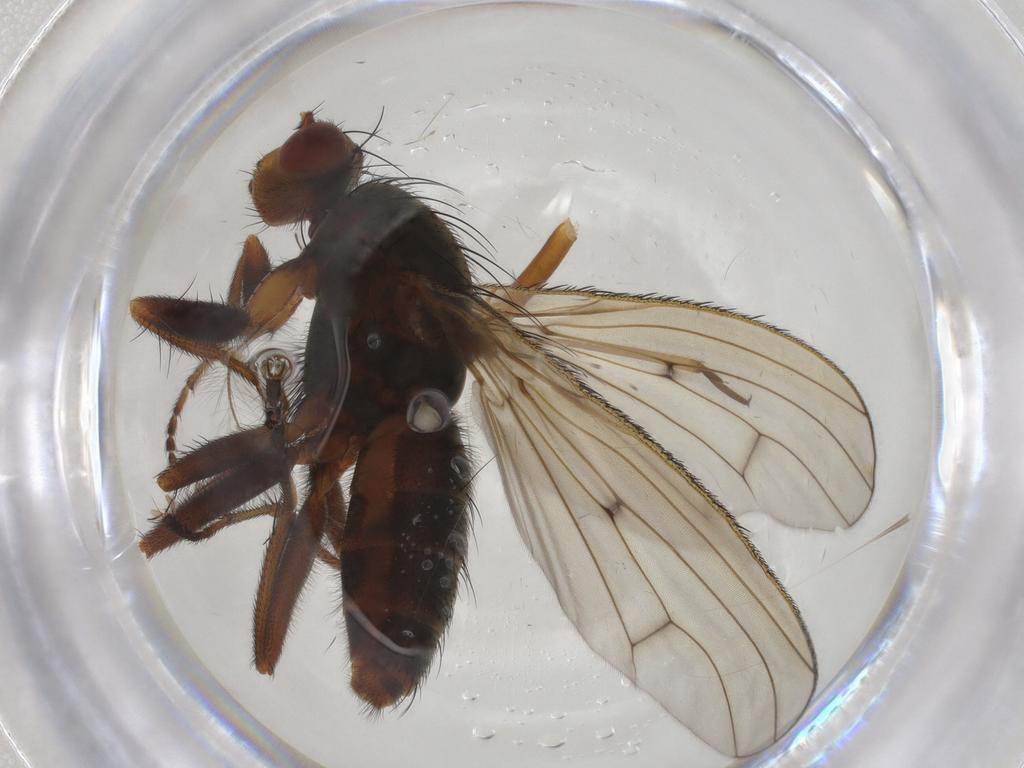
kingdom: Animalia
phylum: Arthropoda
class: Insecta
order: Diptera
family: Heleomyzidae
